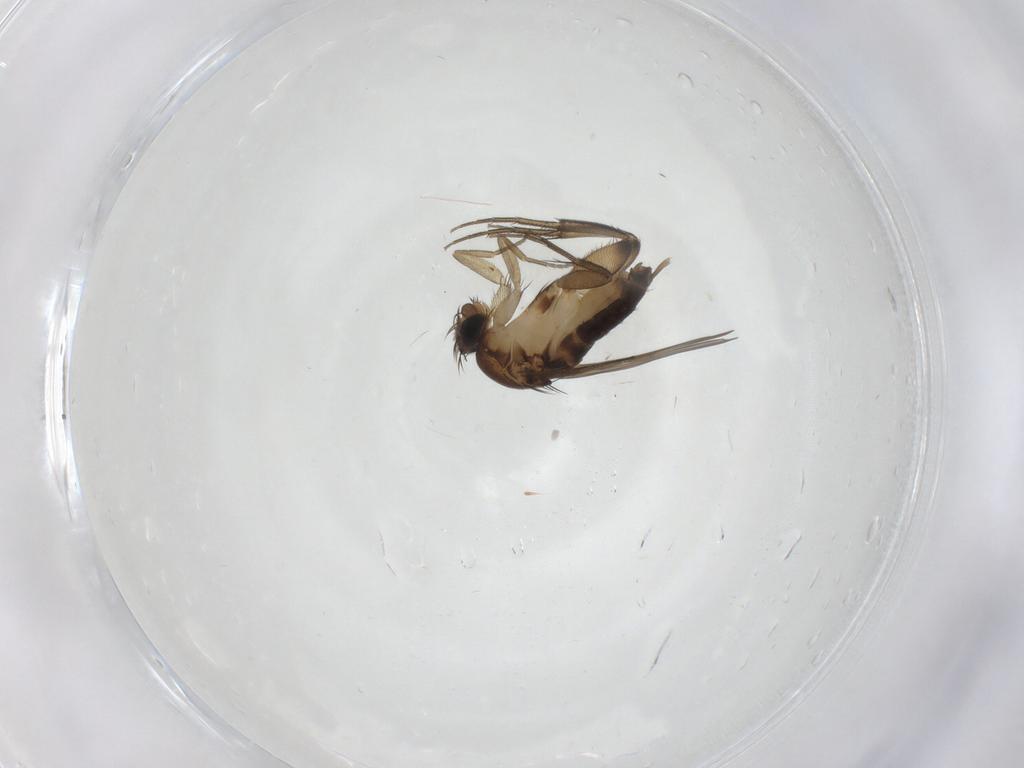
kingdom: Animalia
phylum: Arthropoda
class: Insecta
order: Diptera
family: Phoridae
